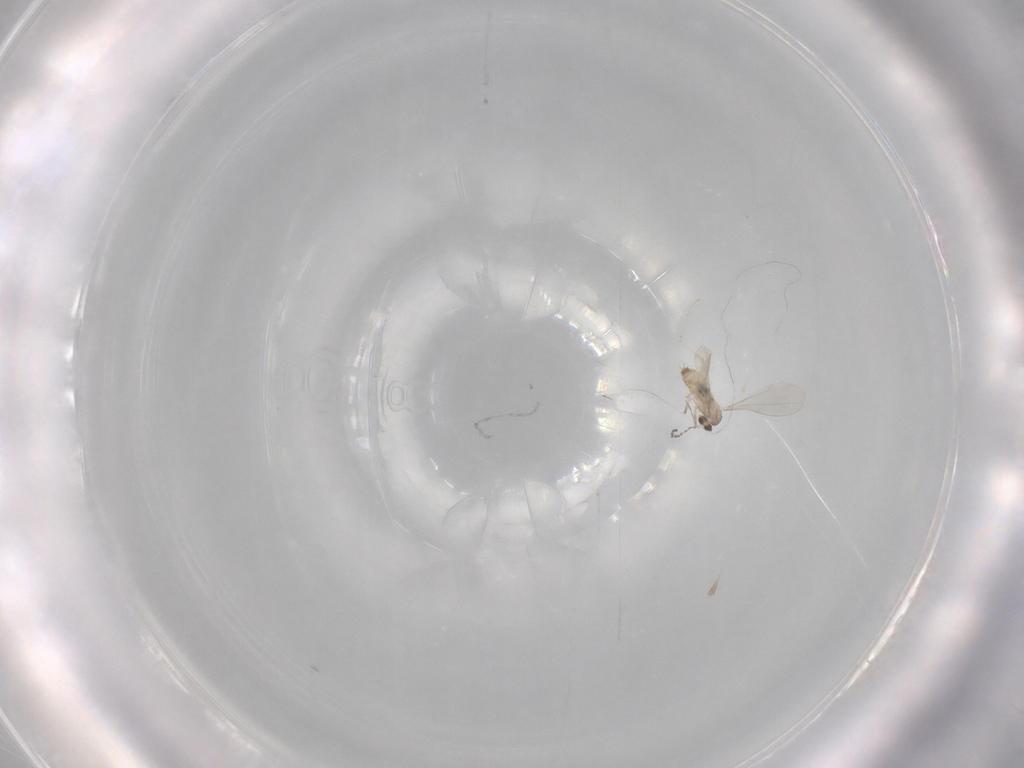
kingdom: Animalia
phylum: Arthropoda
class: Insecta
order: Diptera
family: Cecidomyiidae
